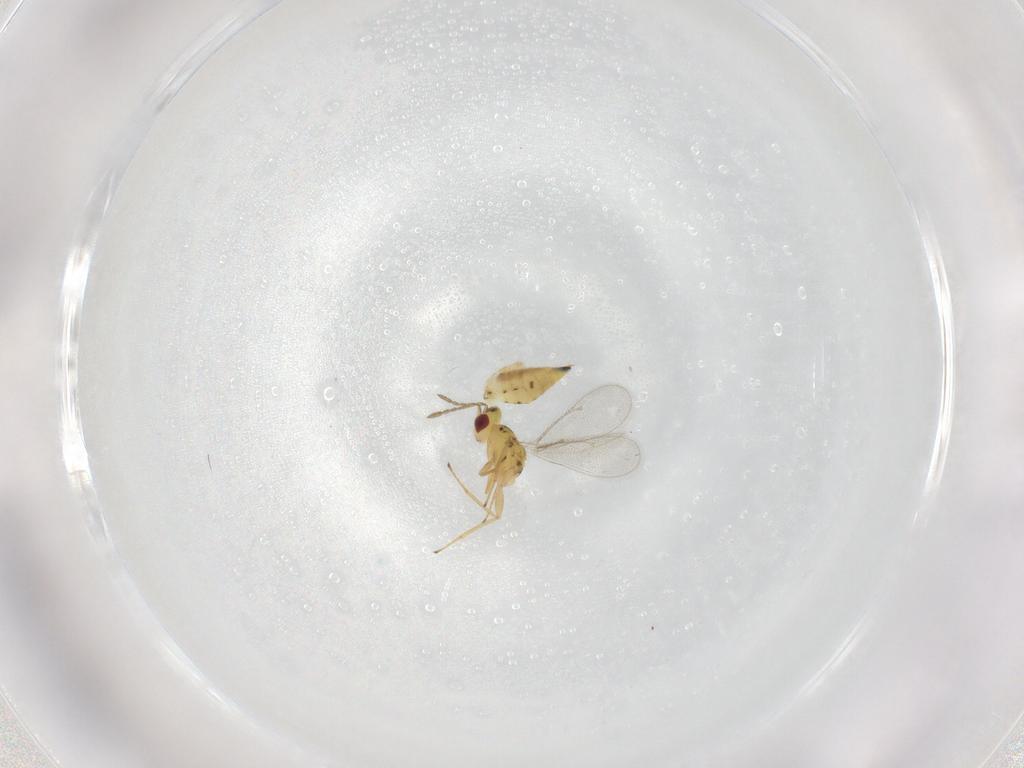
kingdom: Animalia
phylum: Arthropoda
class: Insecta
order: Hymenoptera
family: Eulophidae
